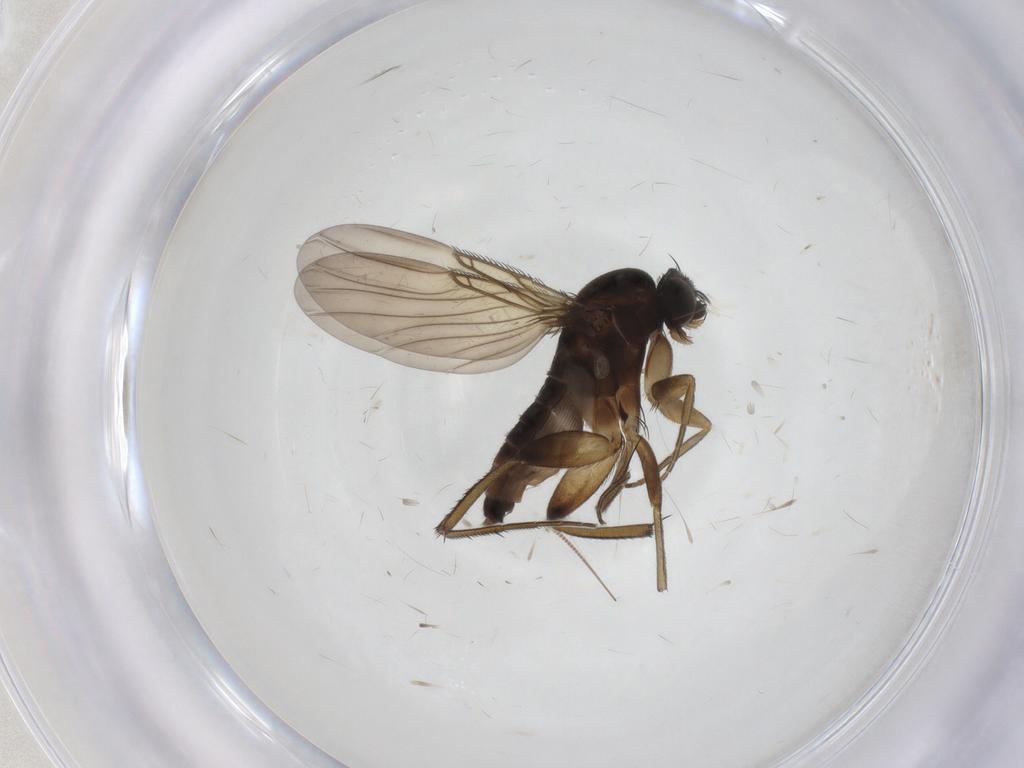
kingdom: Animalia
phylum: Arthropoda
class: Insecta
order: Diptera
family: Phoridae
